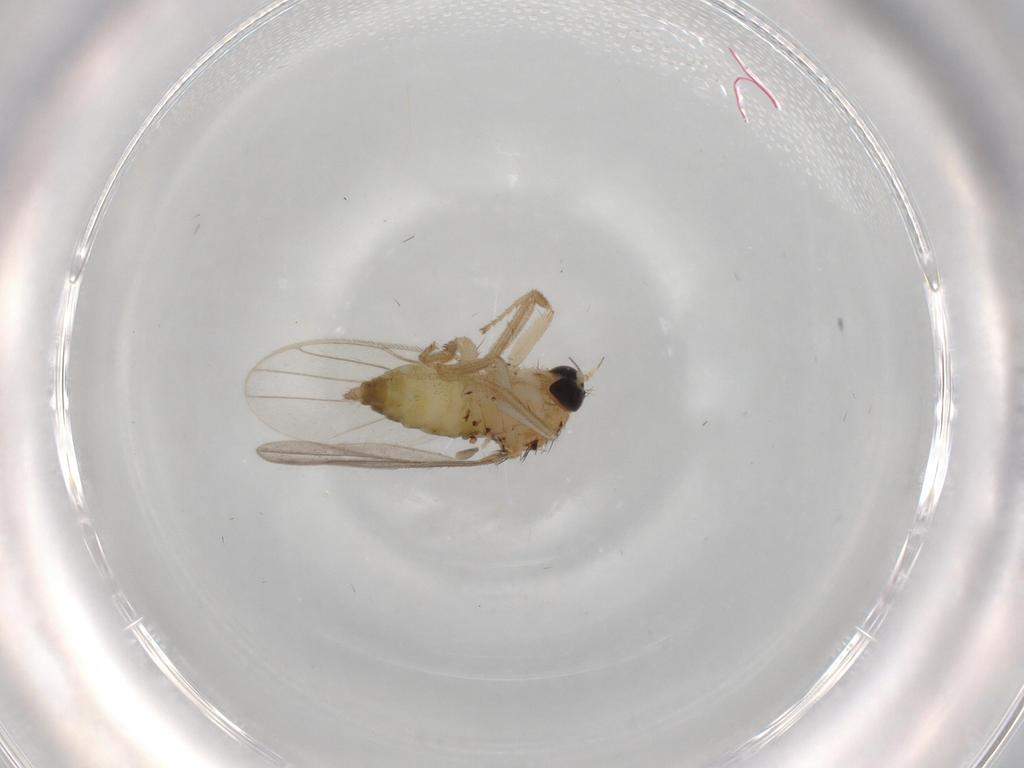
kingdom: Animalia
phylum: Arthropoda
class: Insecta
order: Diptera
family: Hybotidae
